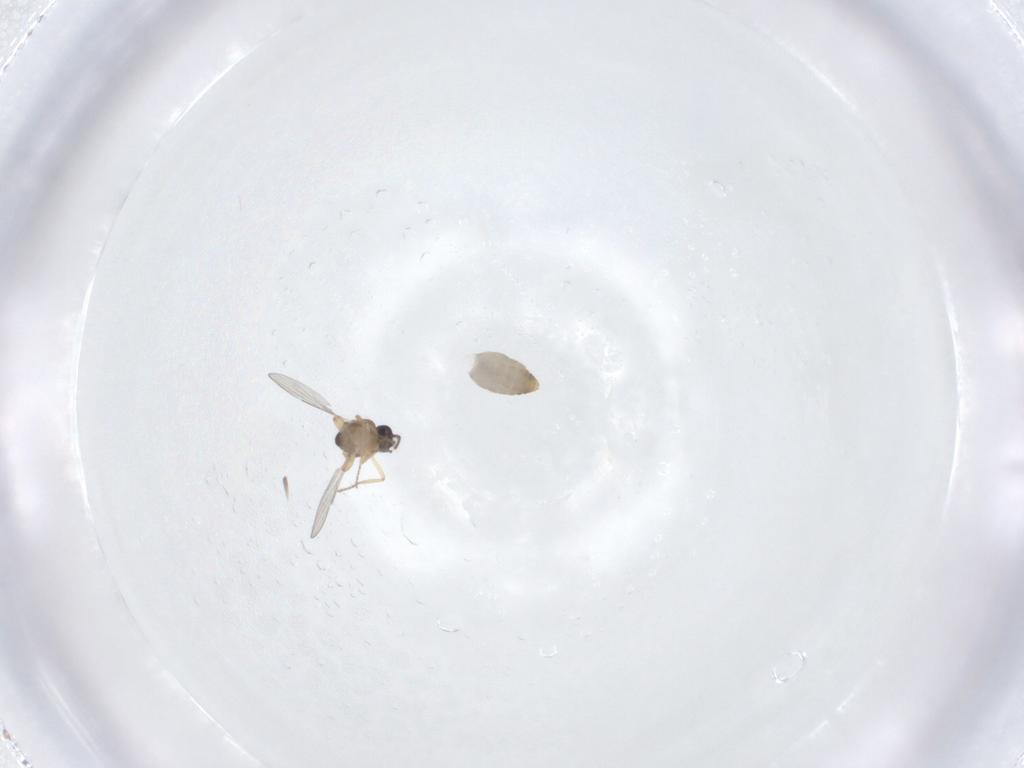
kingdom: Animalia
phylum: Arthropoda
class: Insecta
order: Diptera
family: Ceratopogonidae
